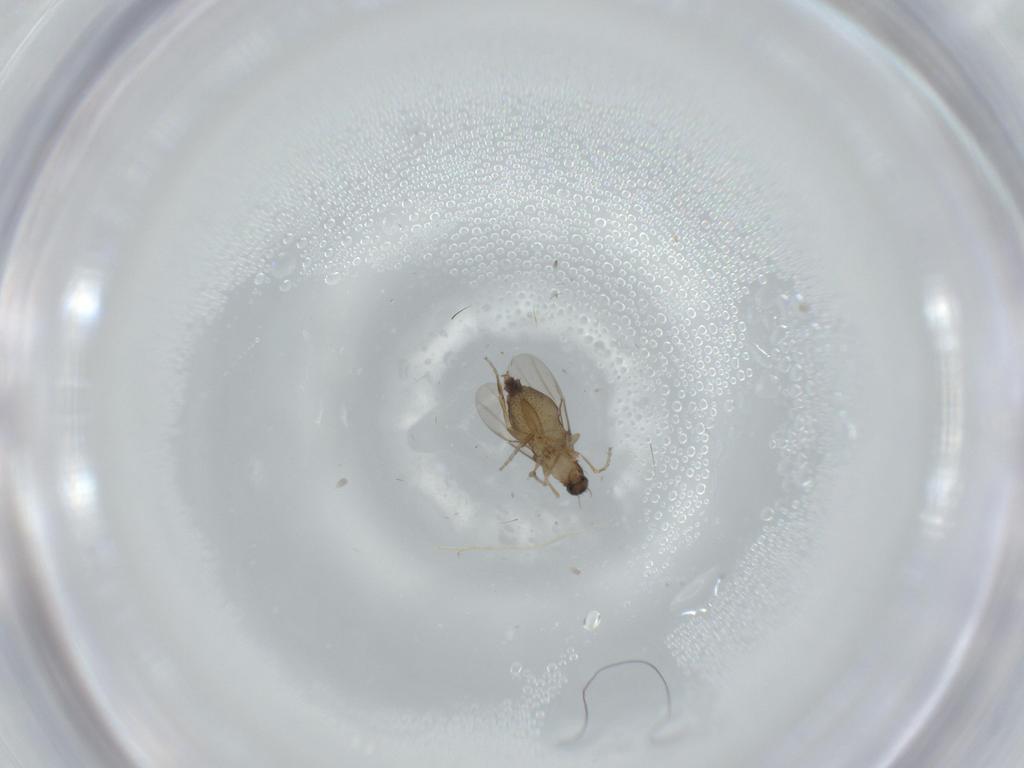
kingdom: Animalia
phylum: Arthropoda
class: Insecta
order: Diptera
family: Phoridae
